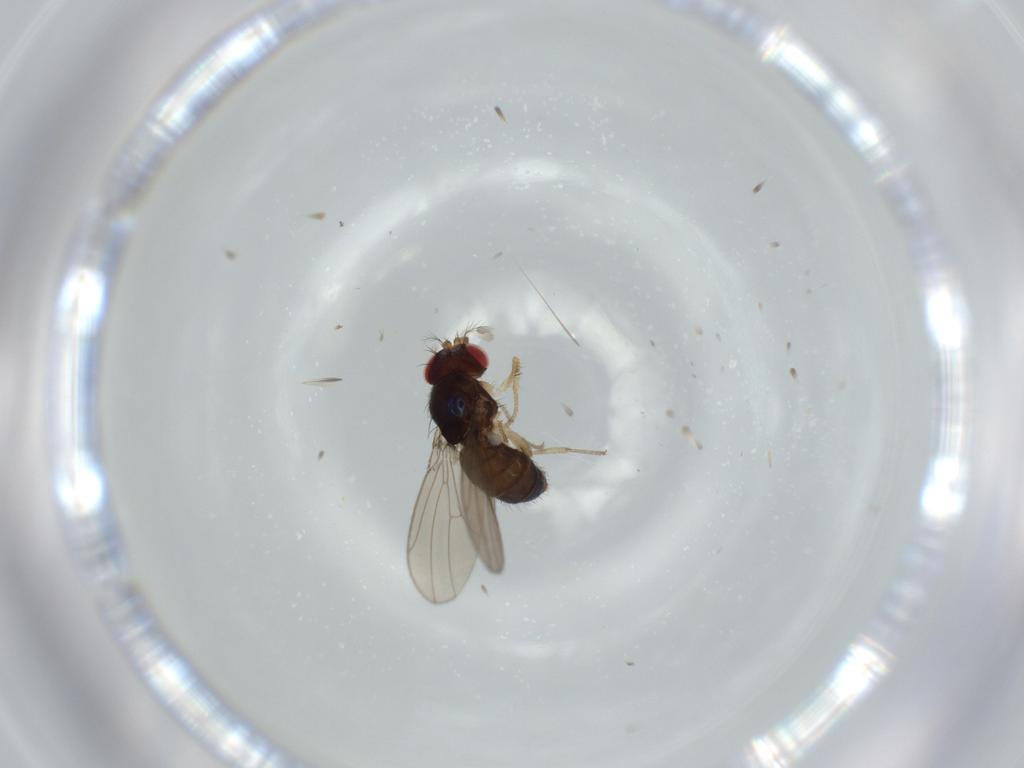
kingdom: Animalia
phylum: Arthropoda
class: Insecta
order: Diptera
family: Drosophilidae
